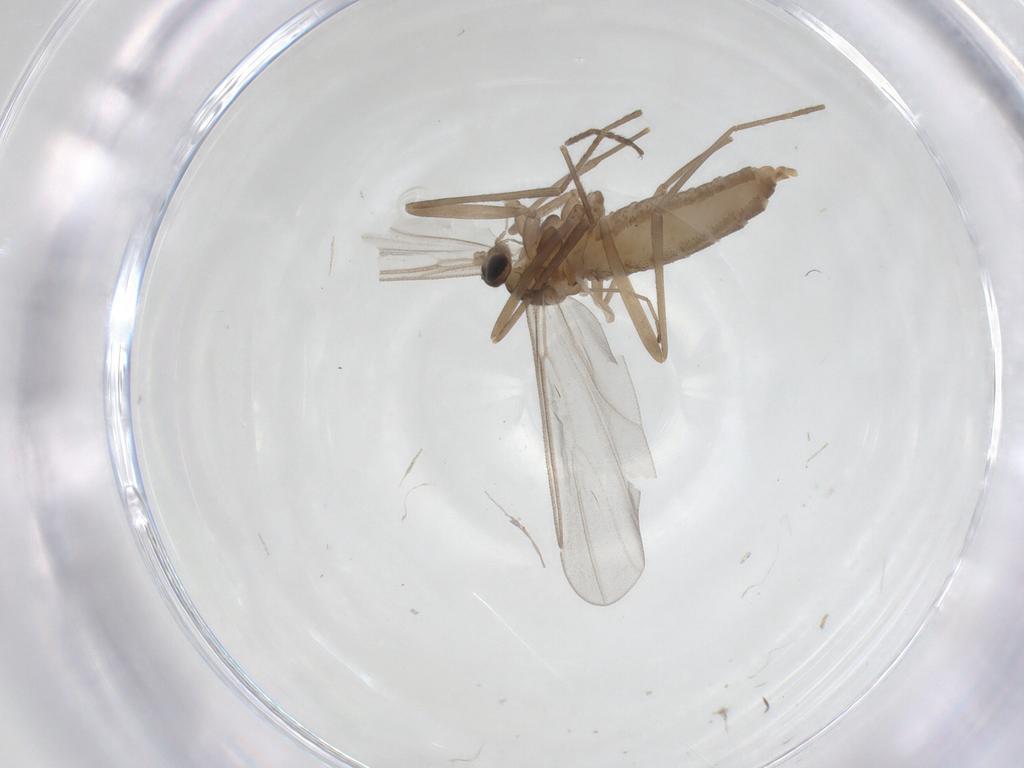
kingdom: Animalia
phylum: Arthropoda
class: Insecta
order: Diptera
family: Cecidomyiidae
